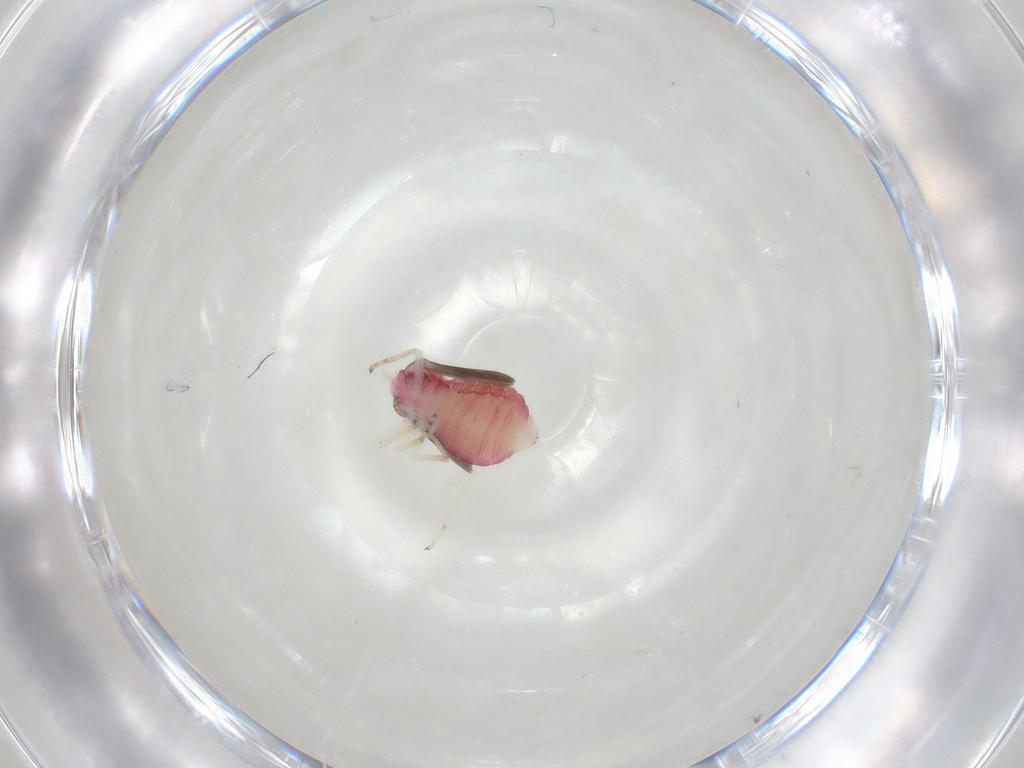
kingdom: Animalia
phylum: Arthropoda
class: Insecta
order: Psocodea
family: Caeciliusidae
